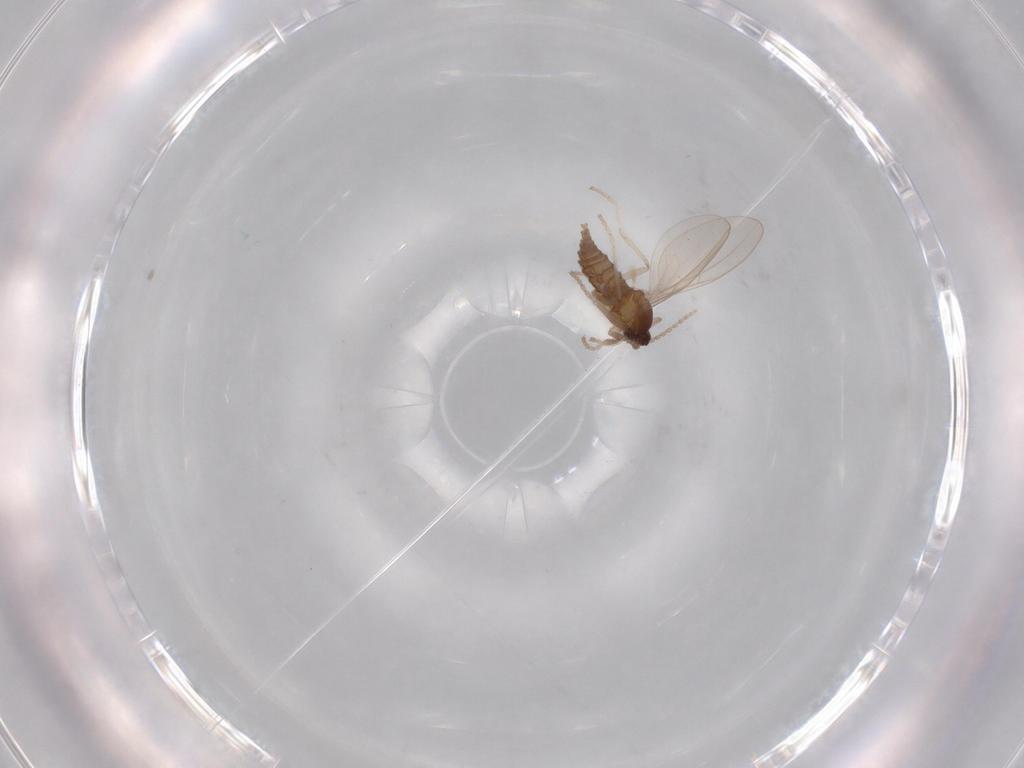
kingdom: Animalia
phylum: Arthropoda
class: Insecta
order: Diptera
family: Cecidomyiidae
